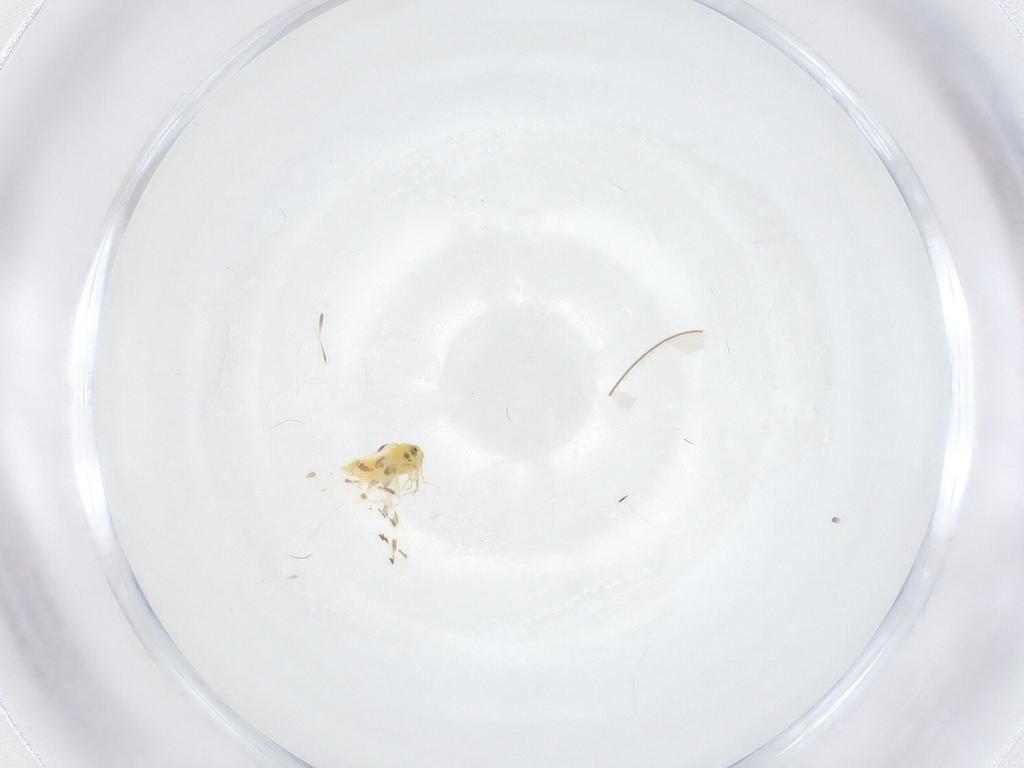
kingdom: Animalia
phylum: Arthropoda
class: Insecta
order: Hemiptera
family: Aleyrodidae
